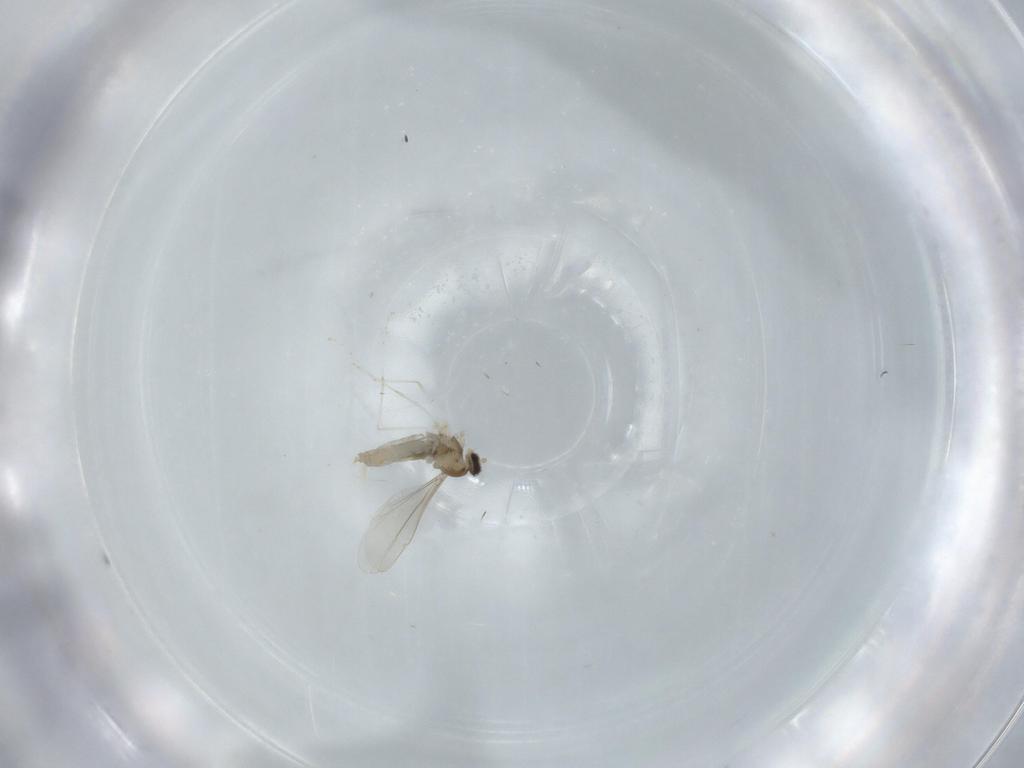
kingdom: Animalia
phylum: Arthropoda
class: Insecta
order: Diptera
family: Cecidomyiidae
